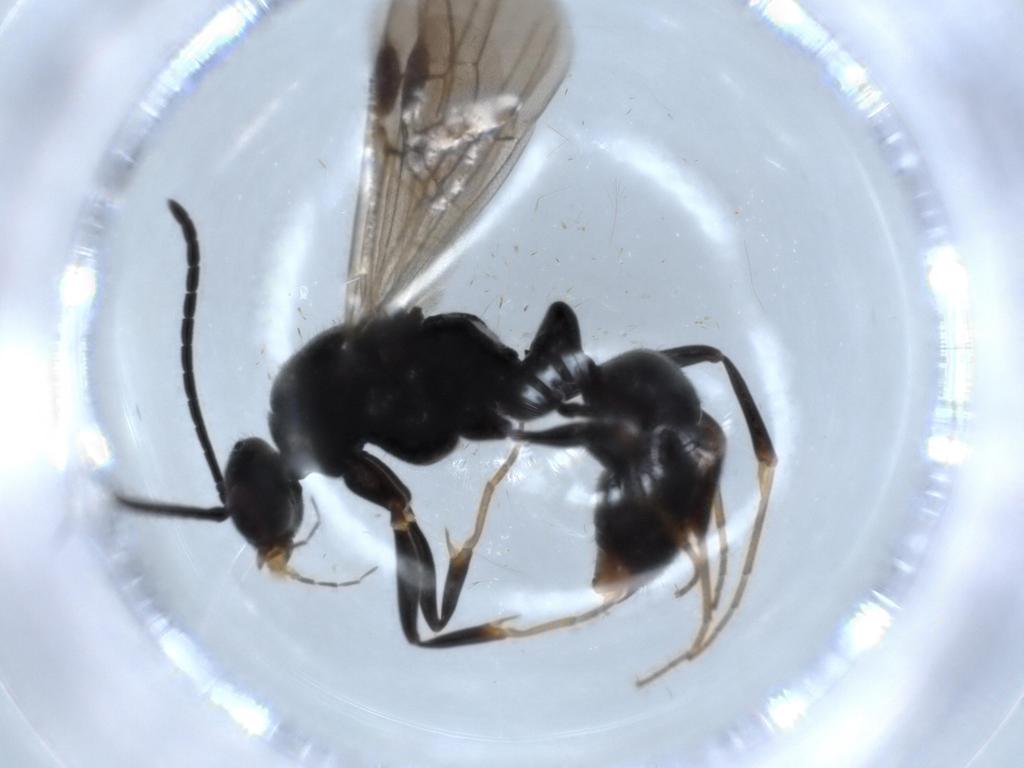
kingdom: Animalia
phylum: Arthropoda
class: Insecta
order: Hymenoptera
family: Formicidae
